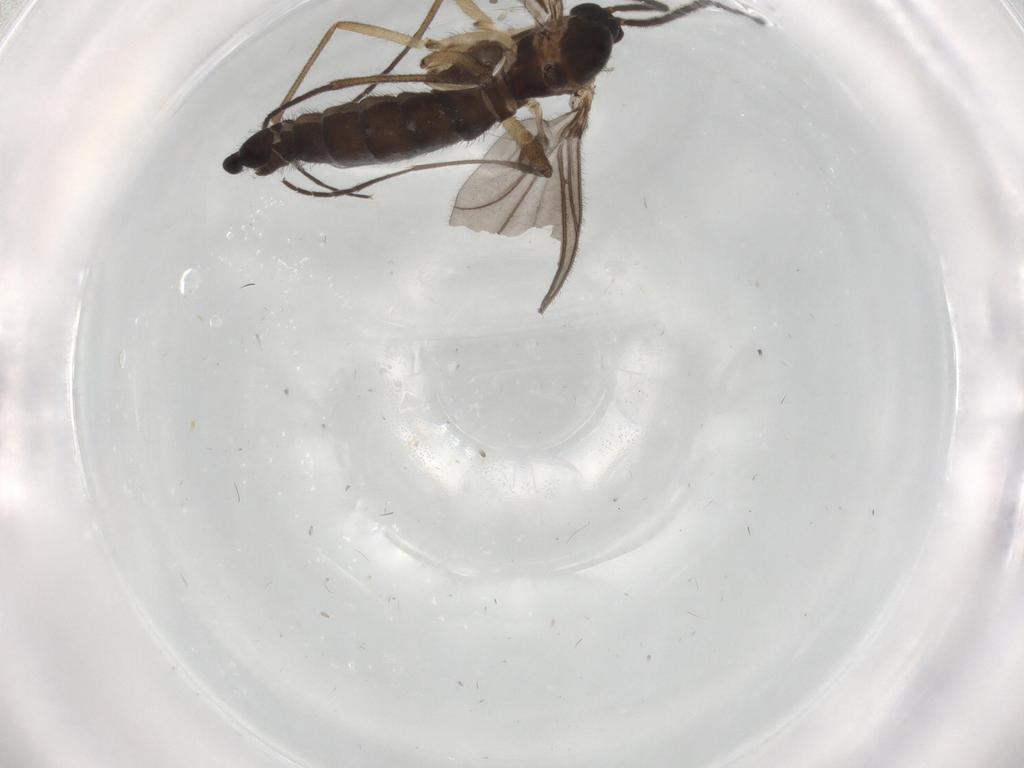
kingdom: Animalia
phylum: Arthropoda
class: Insecta
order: Diptera
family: Sciaridae
